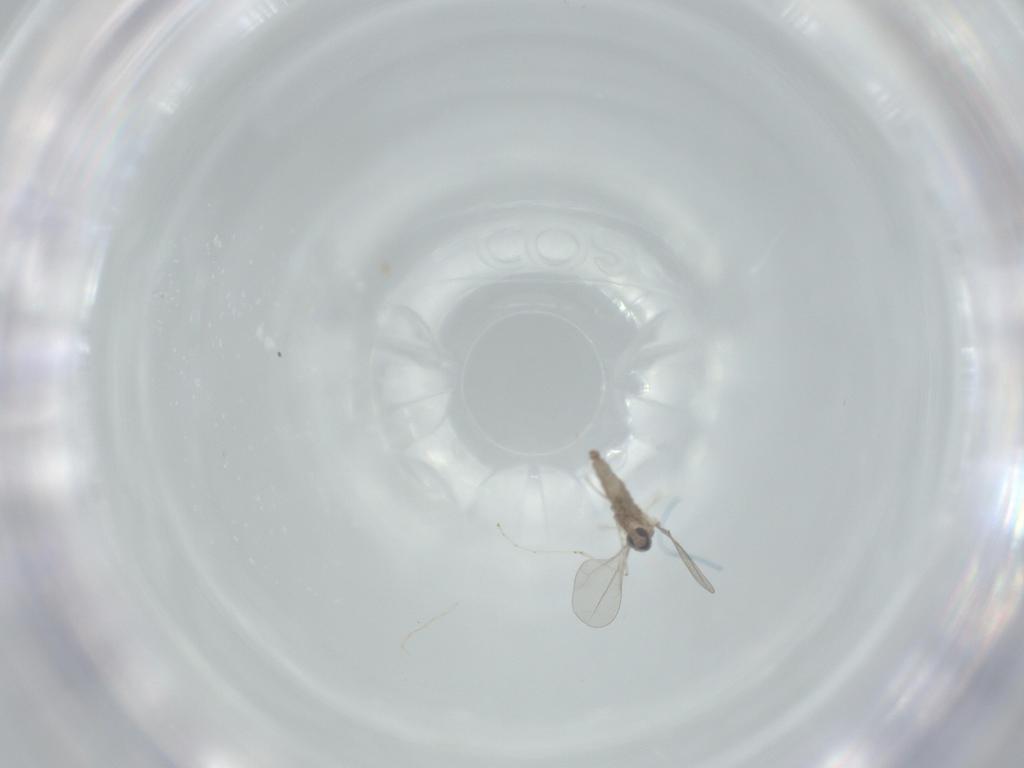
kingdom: Animalia
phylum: Arthropoda
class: Insecta
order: Diptera
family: Cecidomyiidae
